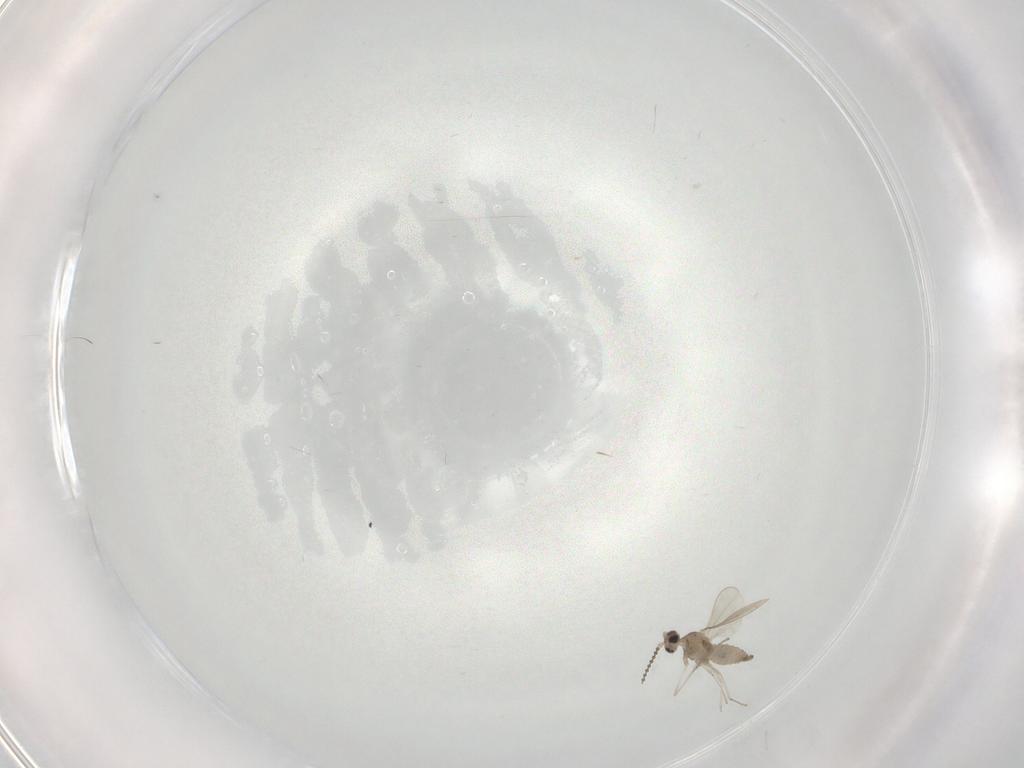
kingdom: Animalia
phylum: Arthropoda
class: Insecta
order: Diptera
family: Cecidomyiidae
